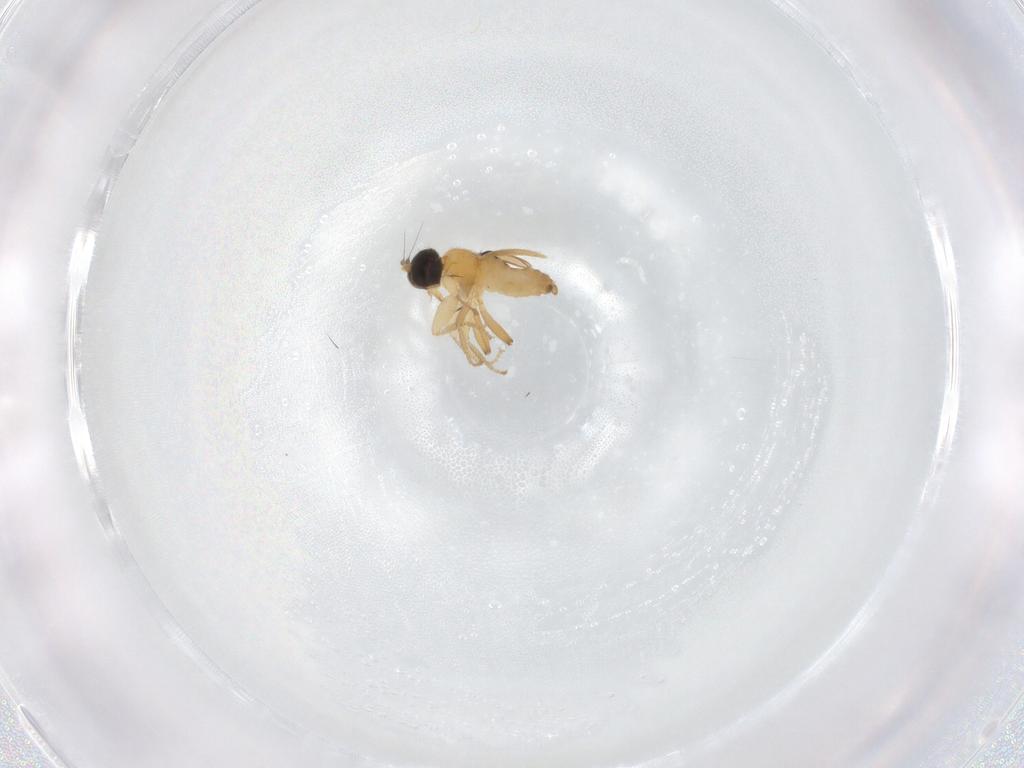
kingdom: Animalia
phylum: Arthropoda
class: Insecta
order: Diptera
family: Hybotidae
